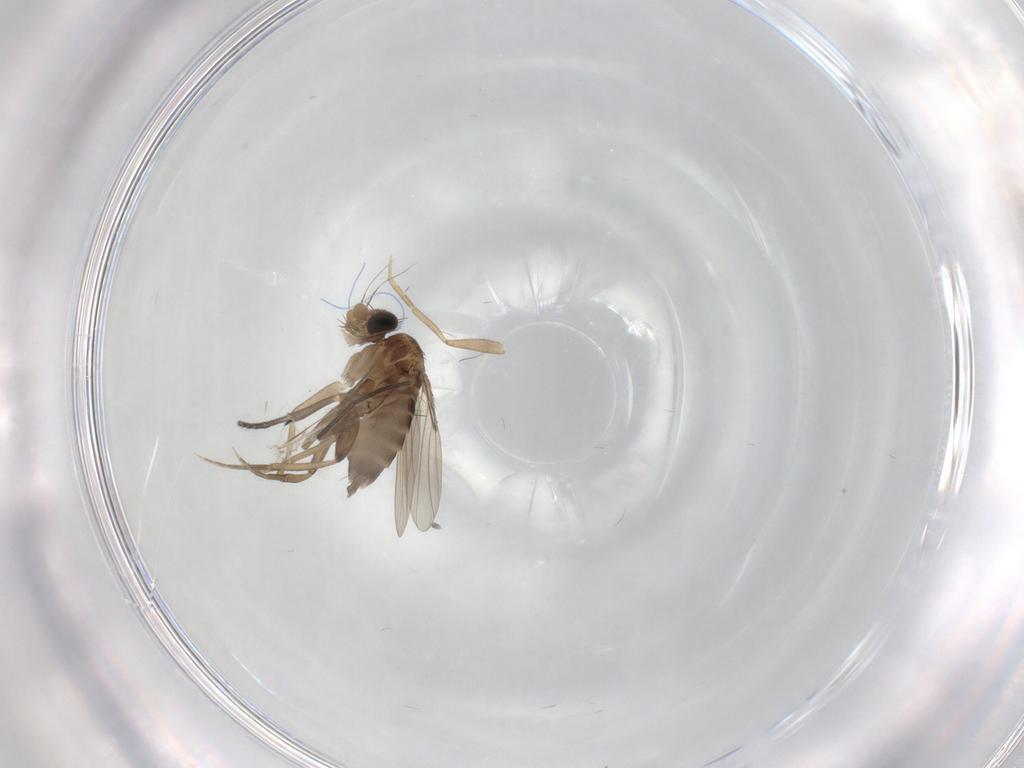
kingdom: Animalia
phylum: Arthropoda
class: Insecta
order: Diptera
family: Phoridae
